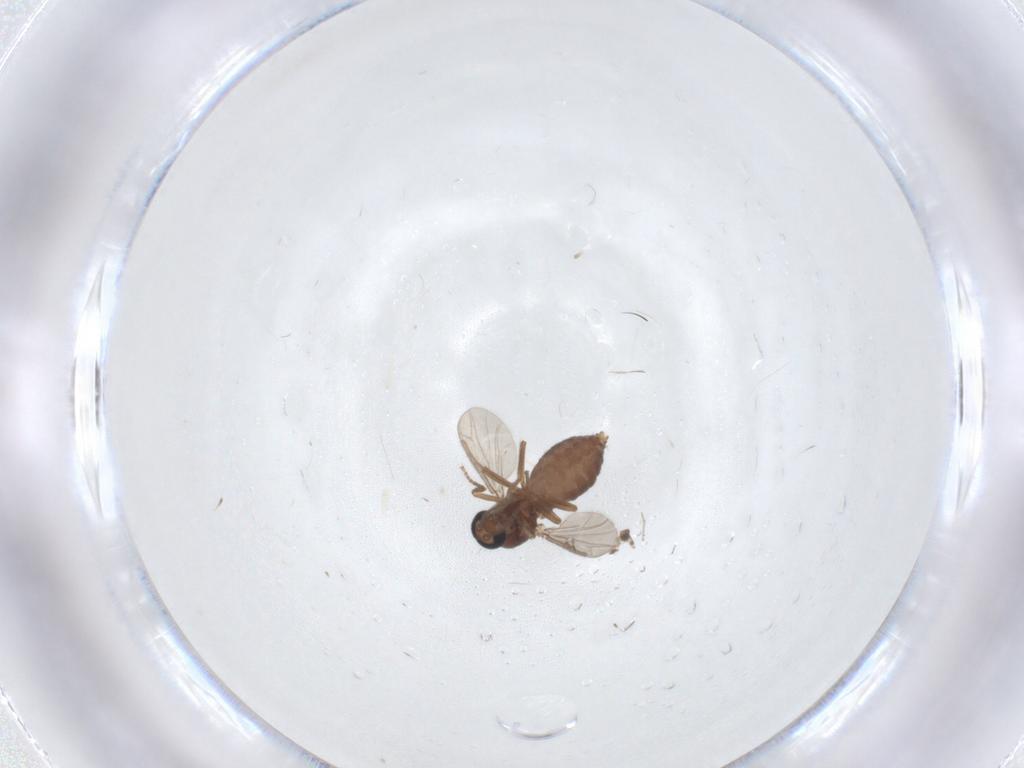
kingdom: Animalia
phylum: Arthropoda
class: Insecta
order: Diptera
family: Ceratopogonidae
